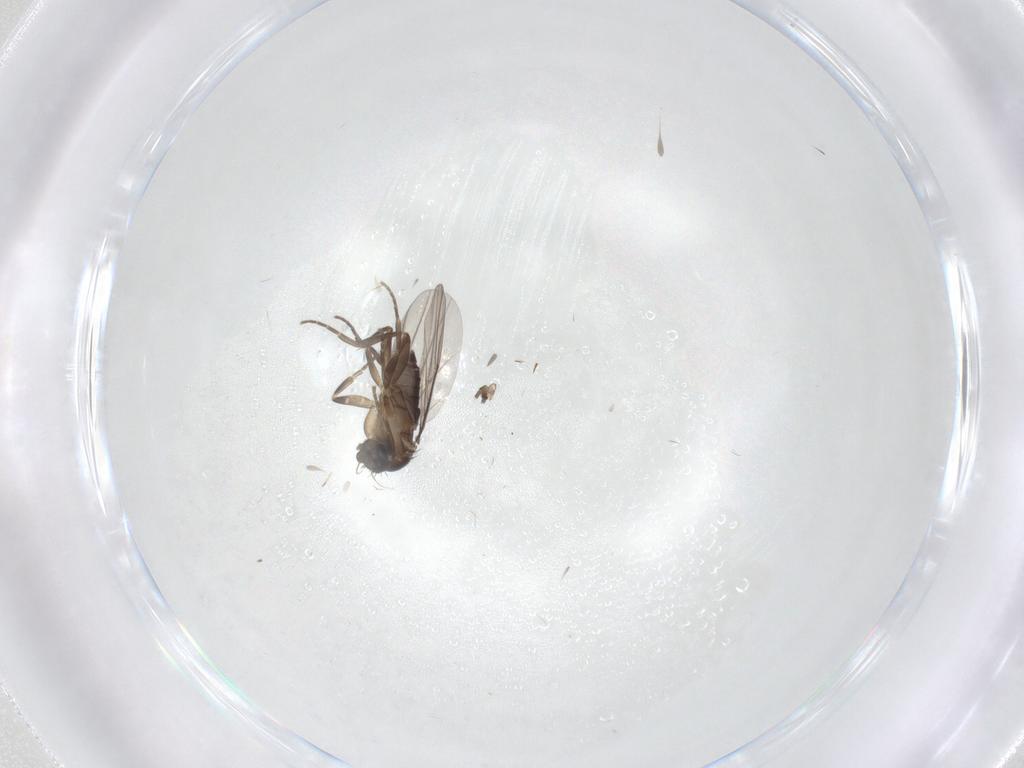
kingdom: Animalia
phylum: Arthropoda
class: Insecta
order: Diptera
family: Phoridae
